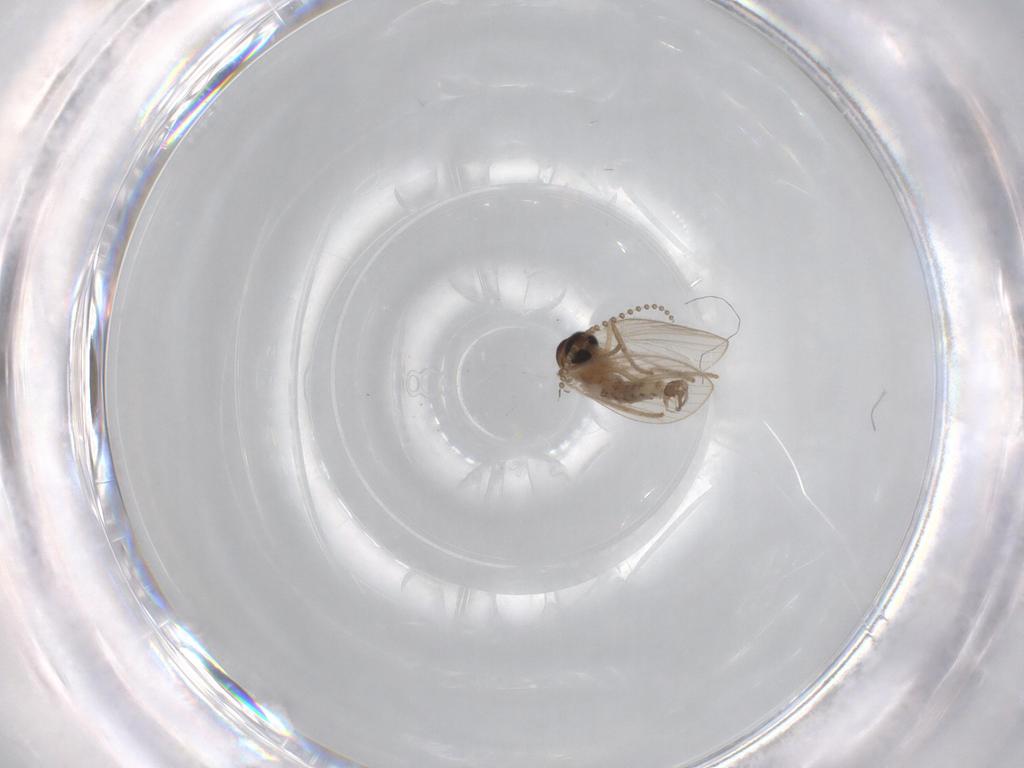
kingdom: Animalia
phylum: Arthropoda
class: Insecta
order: Diptera
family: Psychodidae
